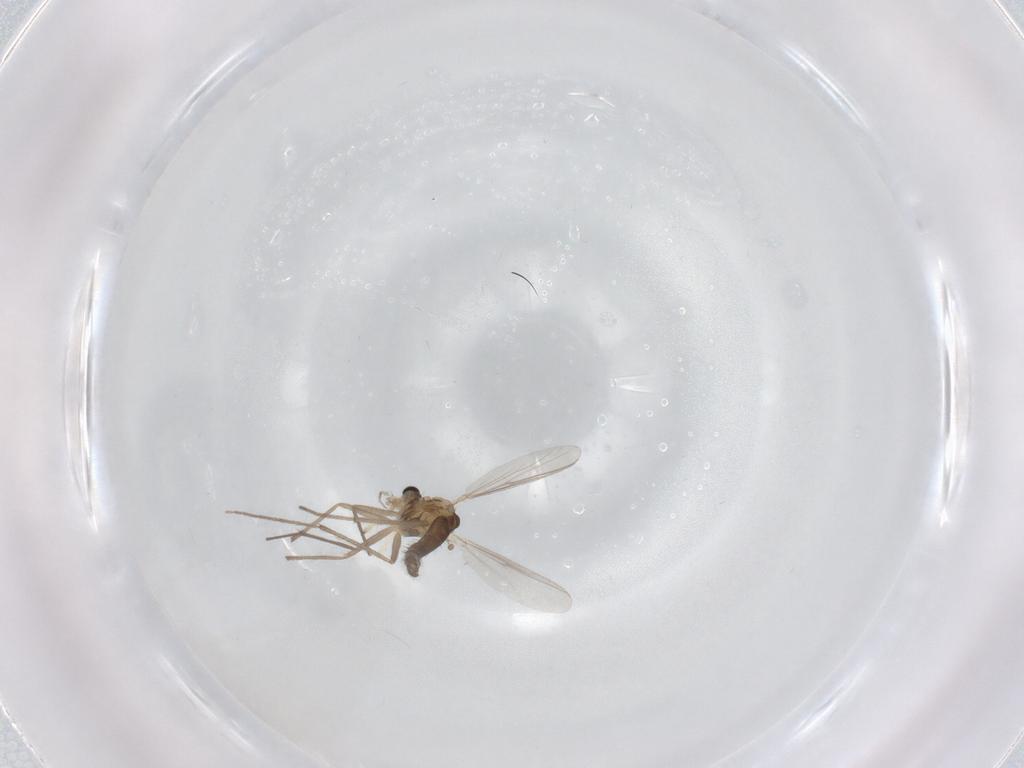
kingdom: Animalia
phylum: Arthropoda
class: Insecta
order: Diptera
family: Chironomidae
